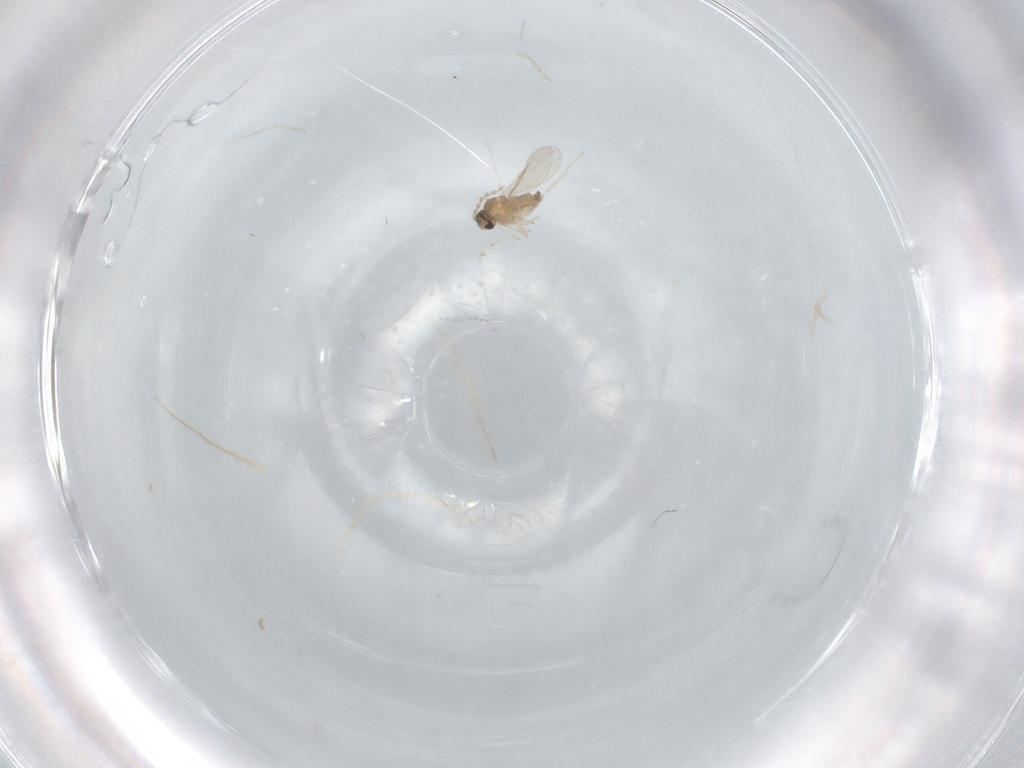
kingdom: Animalia
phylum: Arthropoda
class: Insecta
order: Diptera
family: Cecidomyiidae
